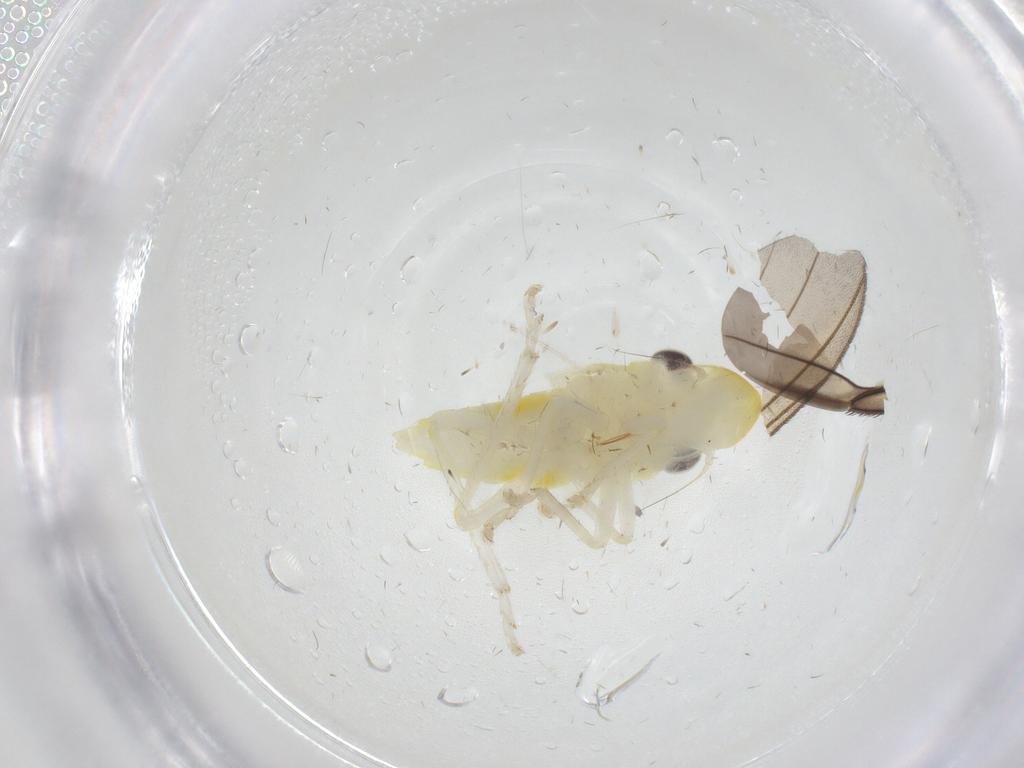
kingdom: Animalia
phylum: Arthropoda
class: Insecta
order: Hemiptera
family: Cicadellidae
